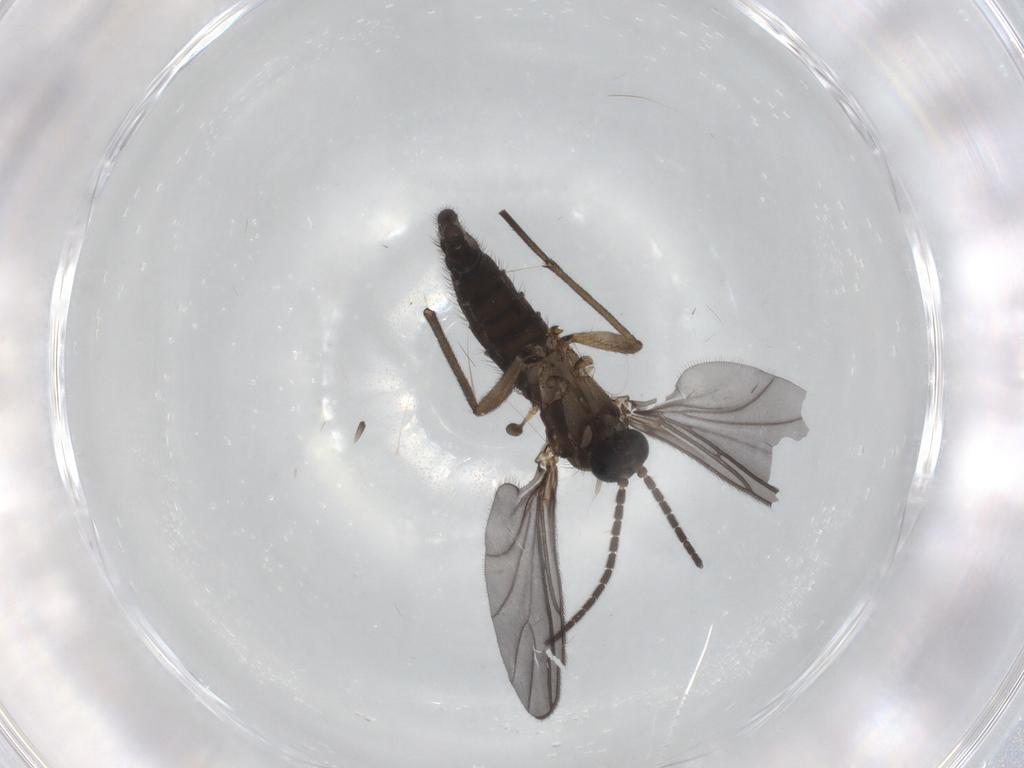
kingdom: Animalia
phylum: Arthropoda
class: Insecta
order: Diptera
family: Sciaridae
